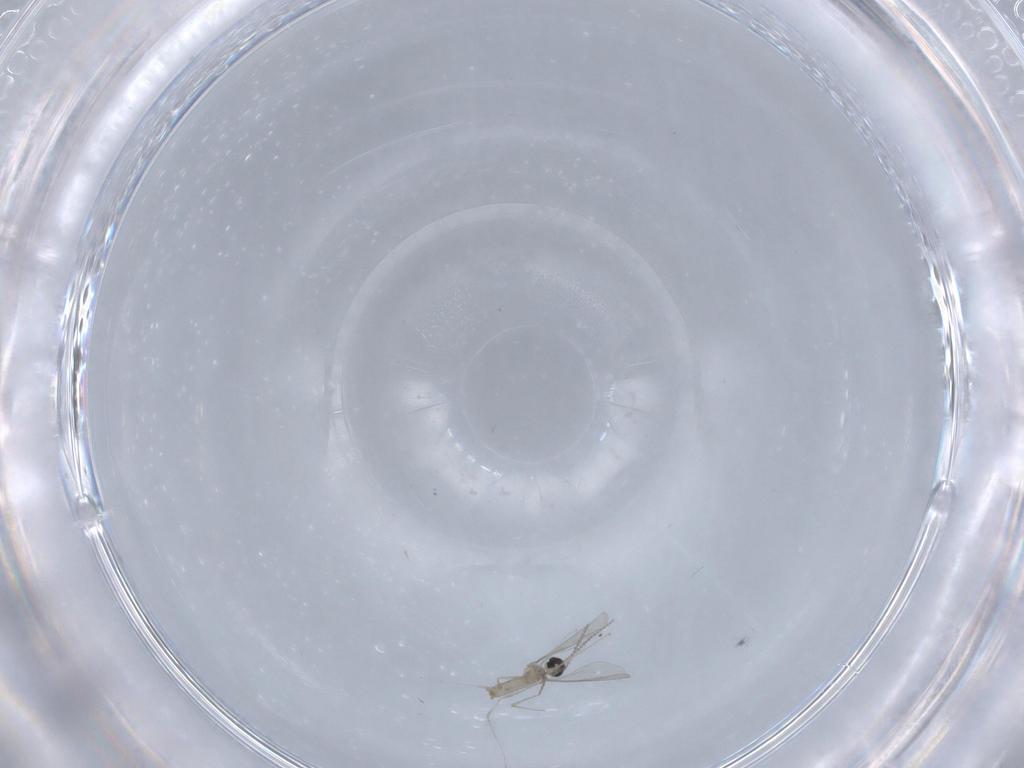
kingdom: Animalia
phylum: Arthropoda
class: Insecta
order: Diptera
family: Cecidomyiidae
